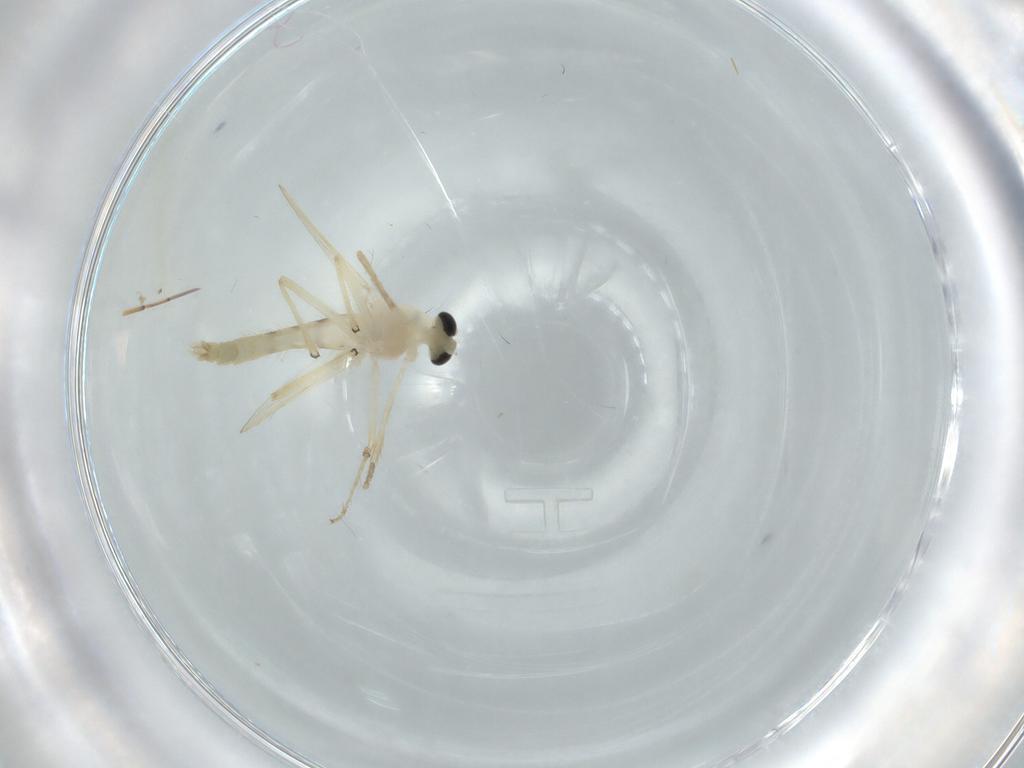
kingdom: Animalia
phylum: Arthropoda
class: Insecta
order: Diptera
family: Chironomidae
